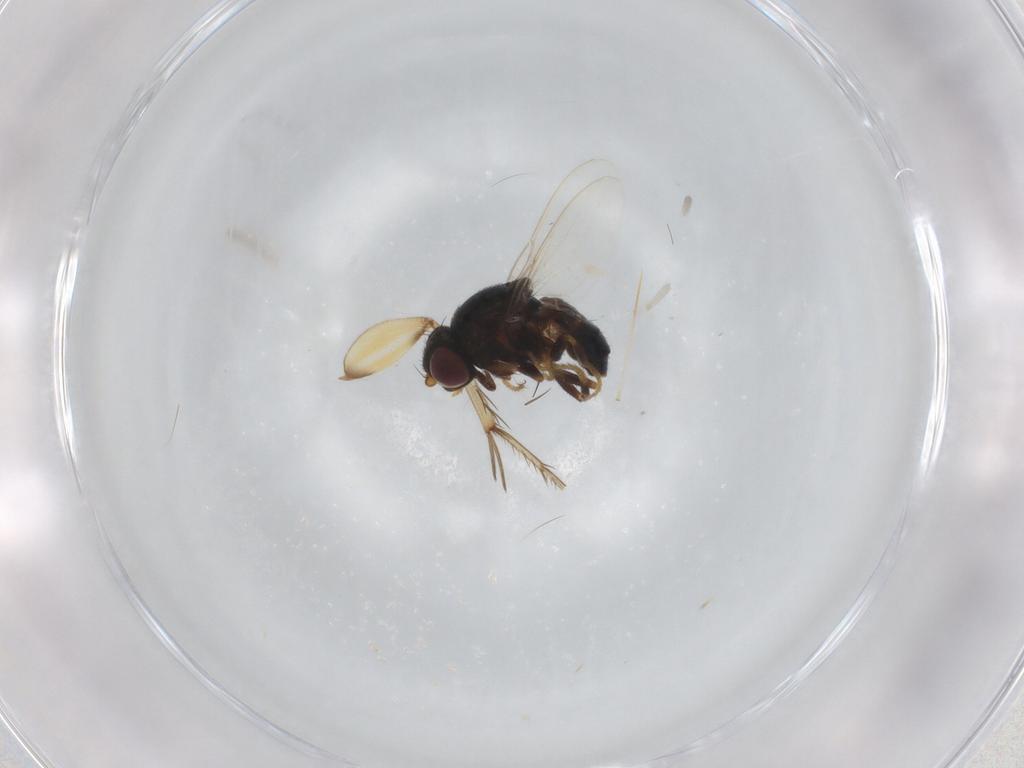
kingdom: Animalia
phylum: Arthropoda
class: Insecta
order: Diptera
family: Chloropidae
